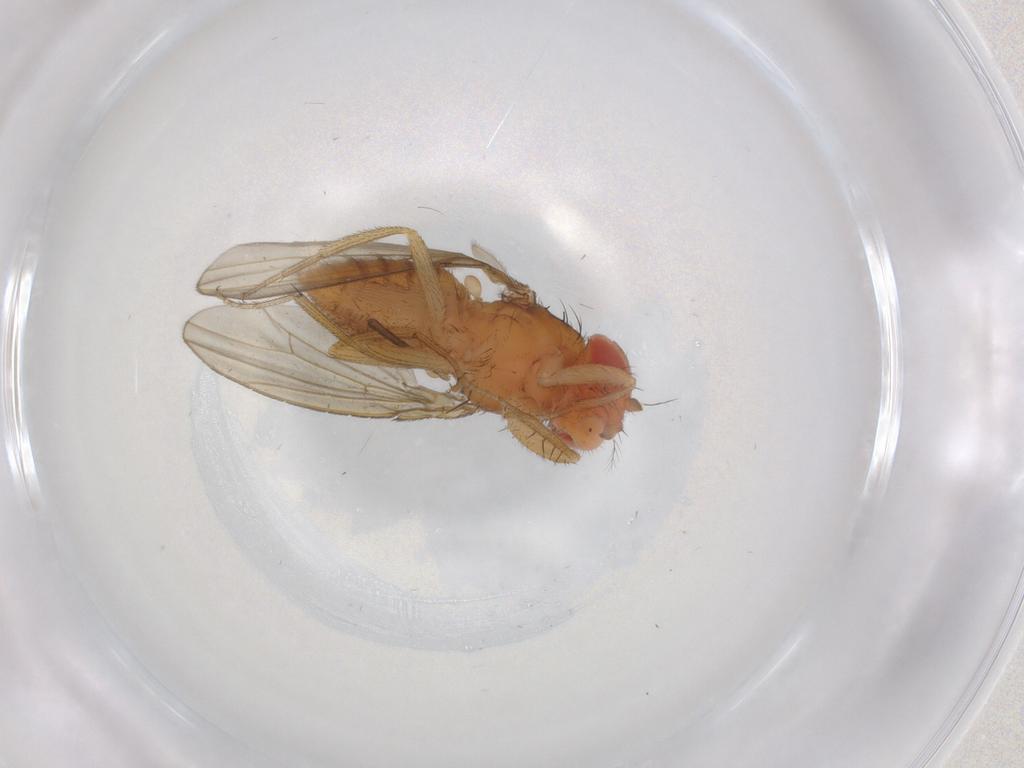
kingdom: Animalia
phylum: Arthropoda
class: Insecta
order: Diptera
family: Drosophilidae
